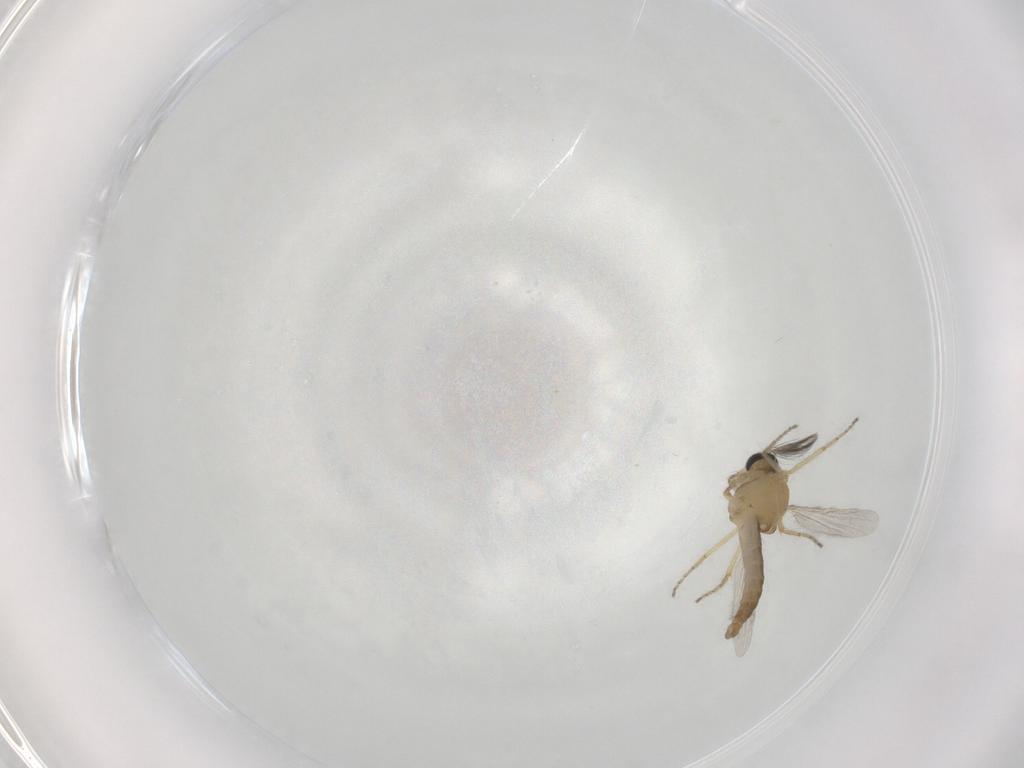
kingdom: Animalia
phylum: Arthropoda
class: Insecta
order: Diptera
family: Ceratopogonidae
